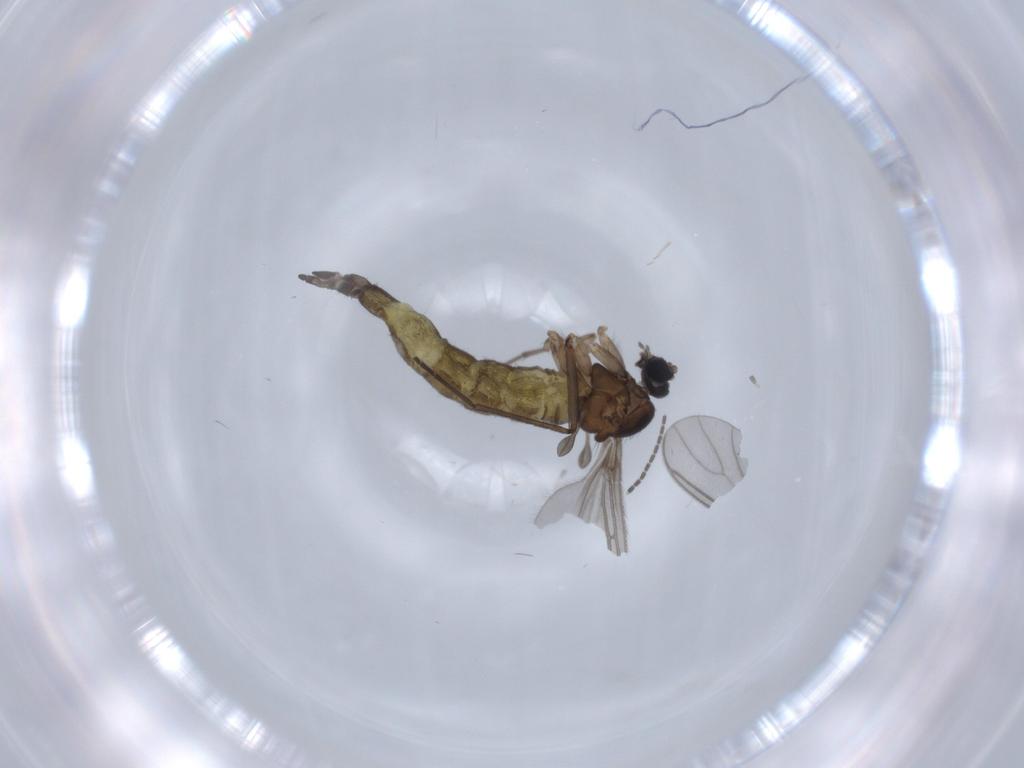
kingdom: Animalia
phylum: Arthropoda
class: Insecta
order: Diptera
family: Sciaridae
